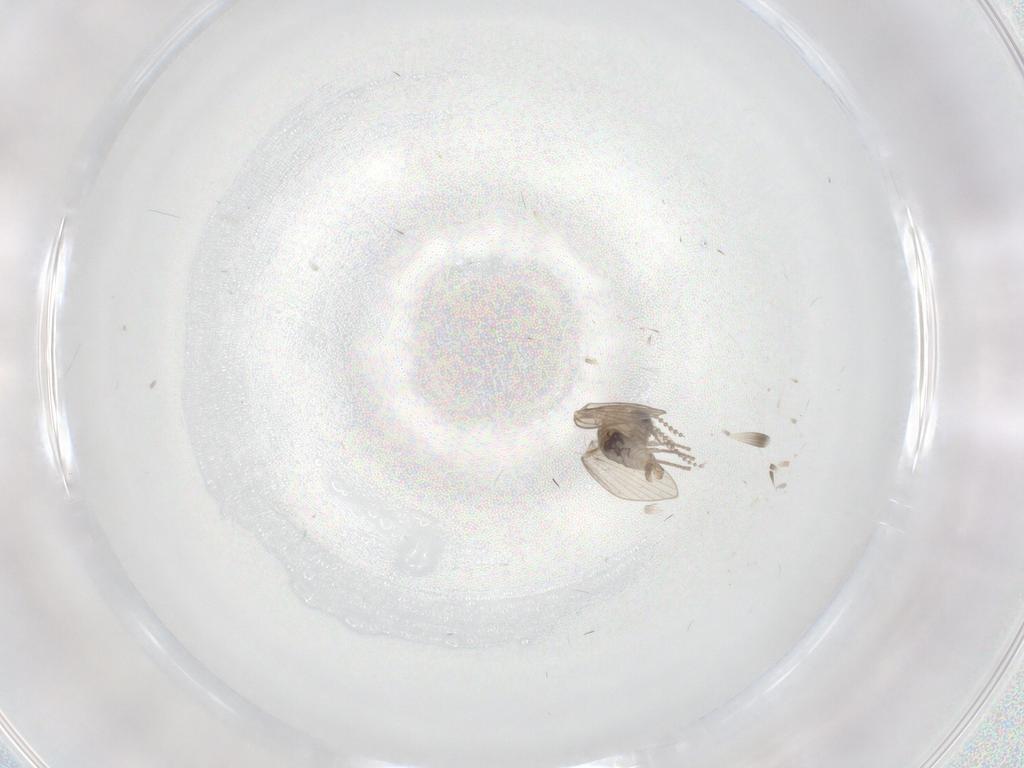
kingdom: Animalia
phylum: Arthropoda
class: Insecta
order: Diptera
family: Psychodidae
